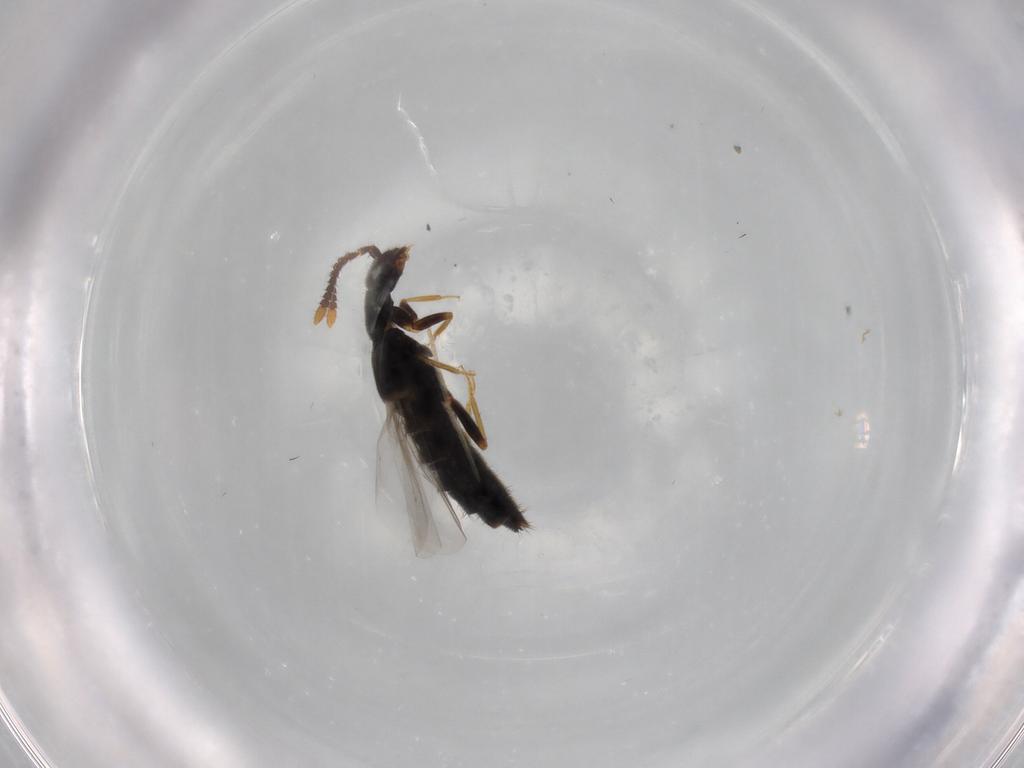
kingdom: Animalia
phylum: Arthropoda
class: Insecta
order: Coleoptera
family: Staphylinidae
